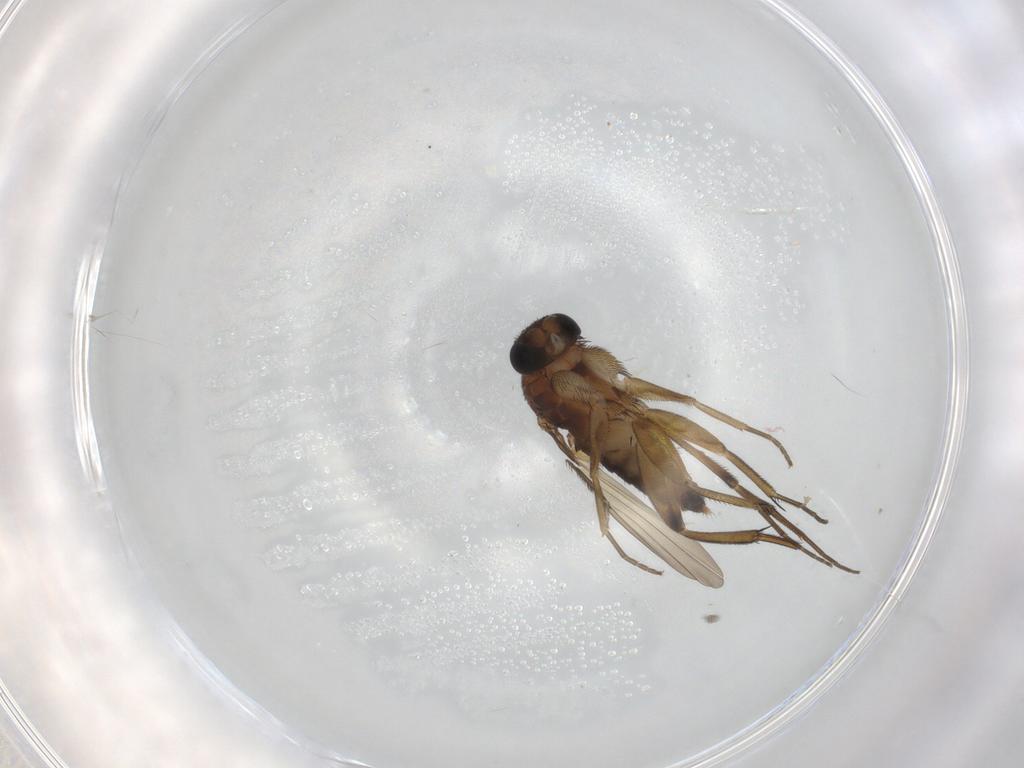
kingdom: Animalia
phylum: Arthropoda
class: Insecta
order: Diptera
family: Phoridae
